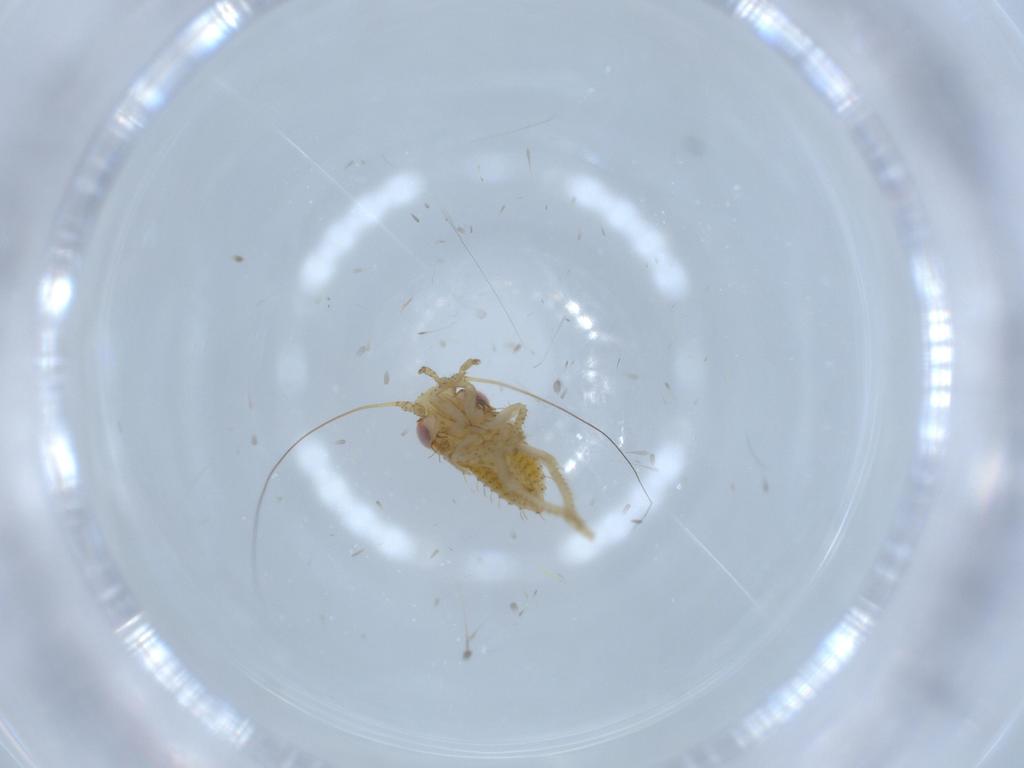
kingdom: Animalia
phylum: Arthropoda
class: Insecta
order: Hemiptera
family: Cicadellidae
